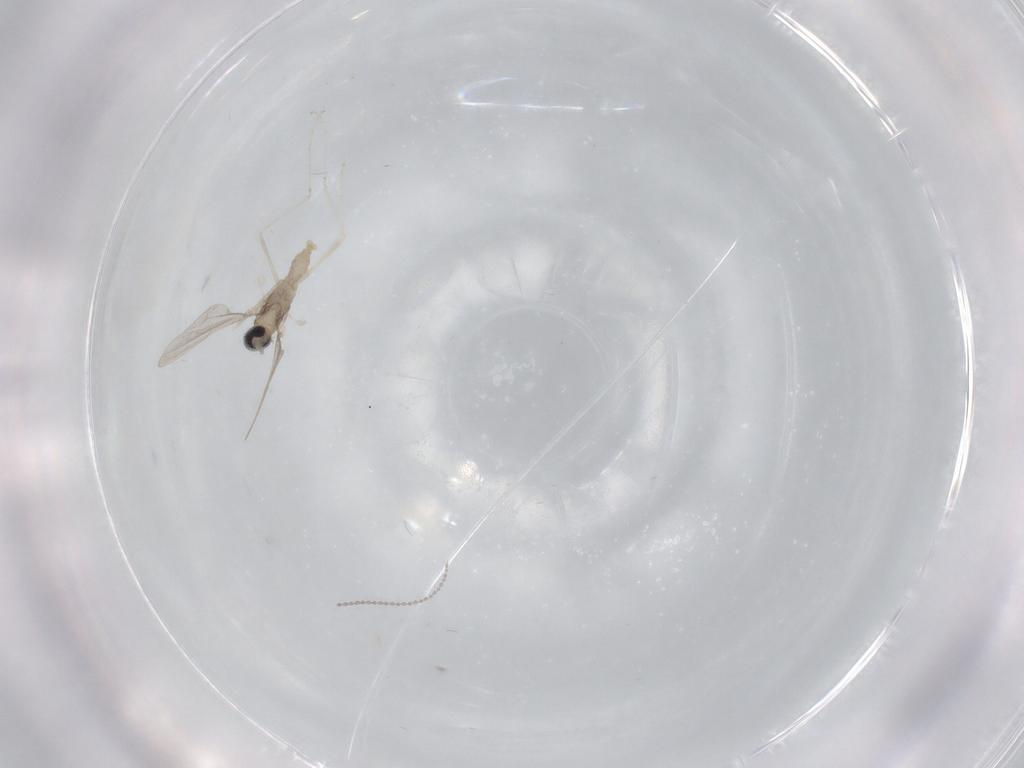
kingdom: Animalia
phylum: Arthropoda
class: Insecta
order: Diptera
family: Cecidomyiidae
